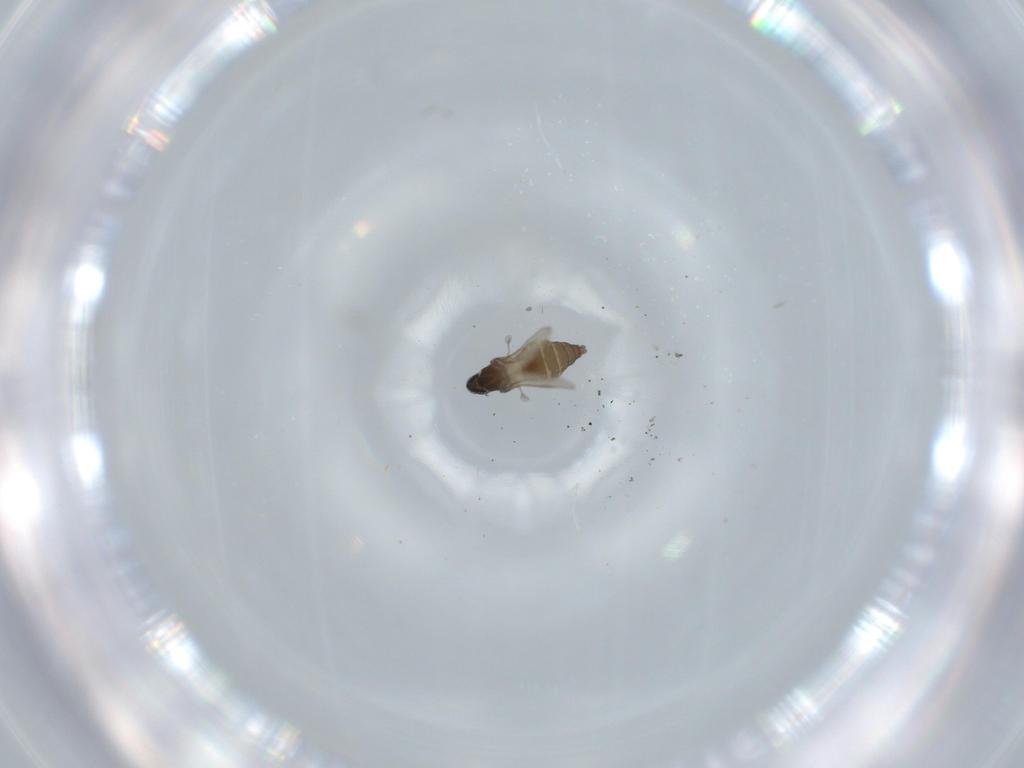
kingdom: Animalia
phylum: Arthropoda
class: Insecta
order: Diptera
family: Cecidomyiidae
